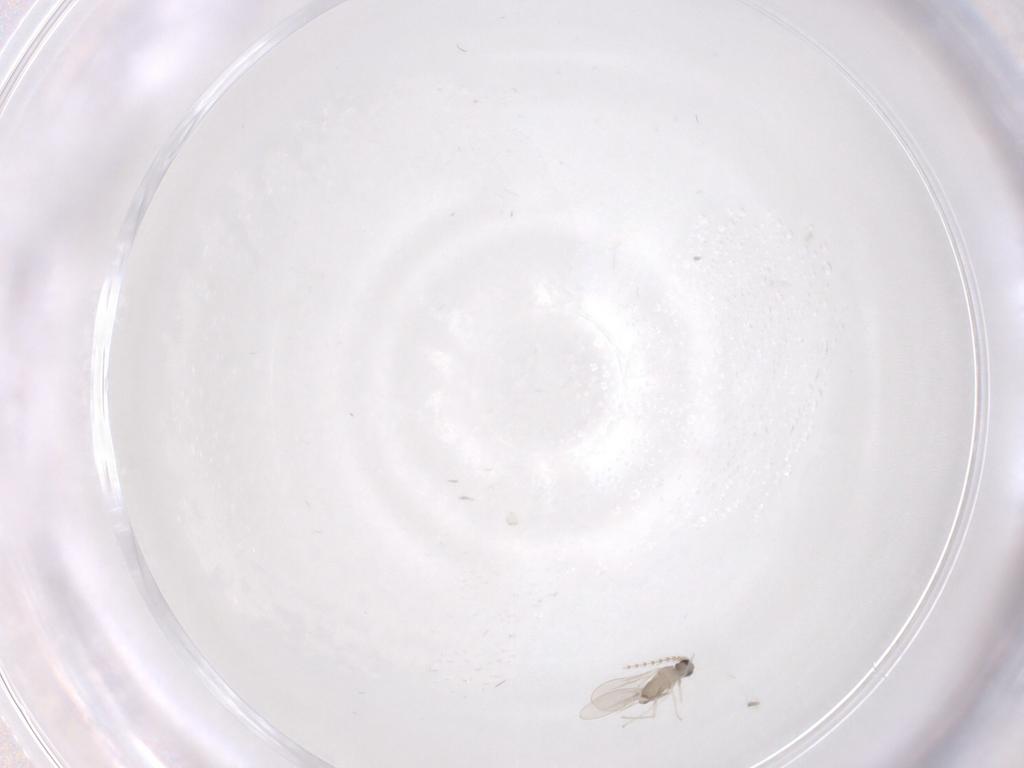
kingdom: Animalia
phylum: Arthropoda
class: Insecta
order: Diptera
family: Cecidomyiidae
